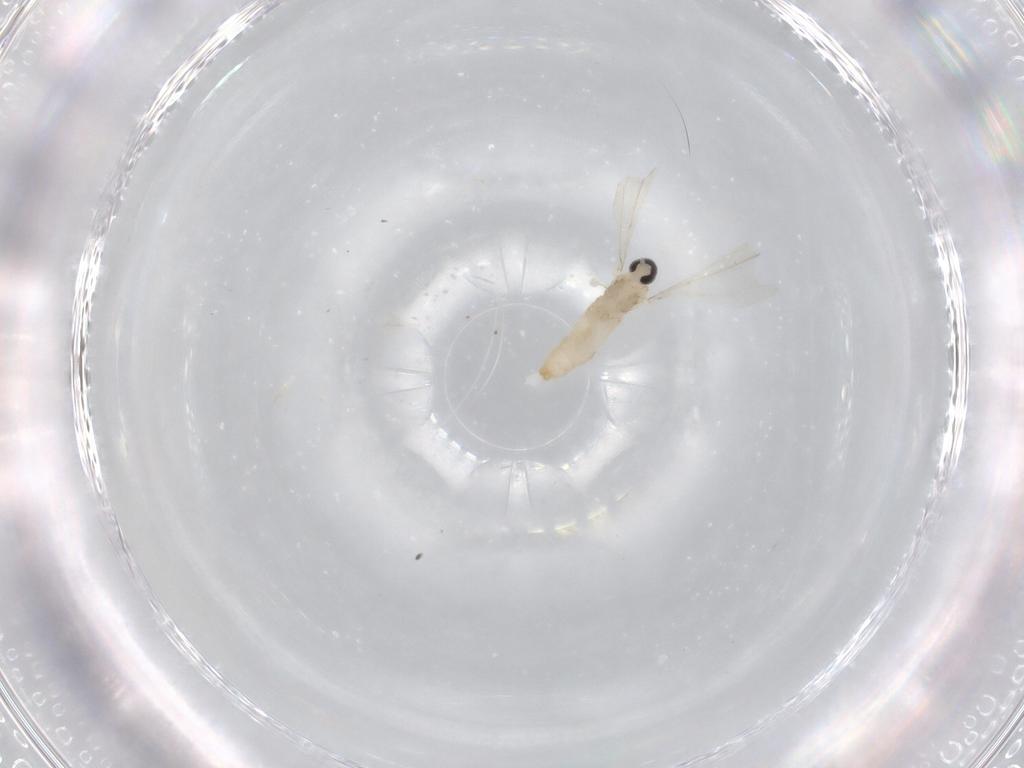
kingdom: Animalia
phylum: Arthropoda
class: Insecta
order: Diptera
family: Cecidomyiidae
